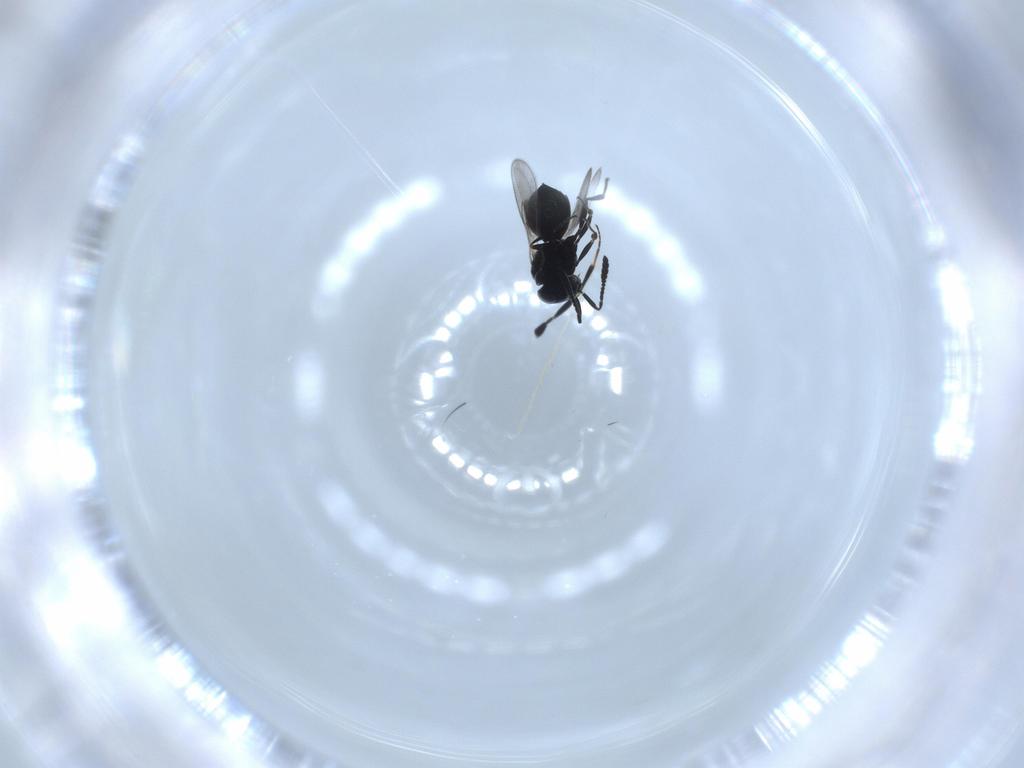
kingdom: Animalia
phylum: Arthropoda
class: Insecta
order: Hymenoptera
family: Scelionidae
